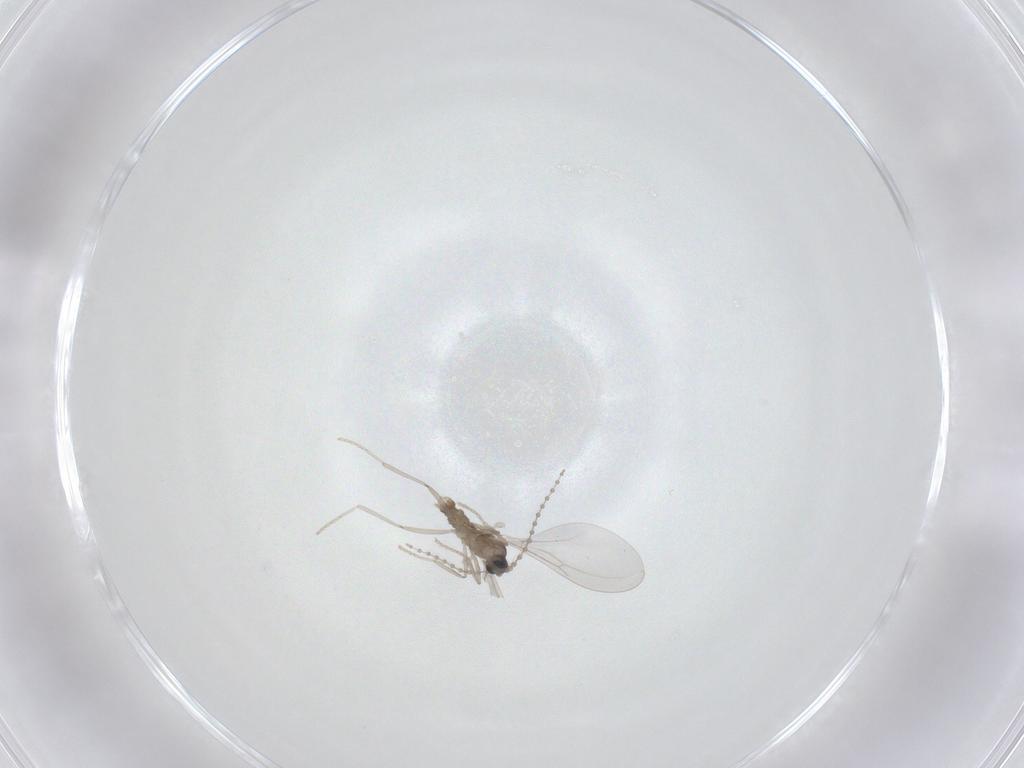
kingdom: Animalia
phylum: Arthropoda
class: Insecta
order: Diptera
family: Cecidomyiidae
